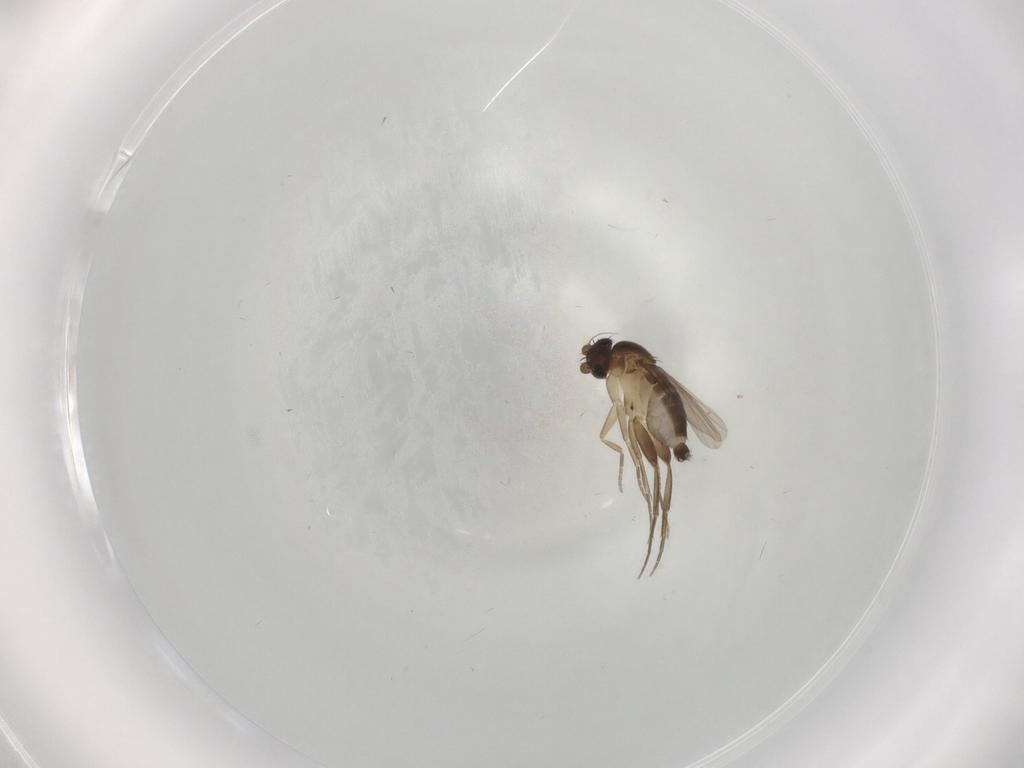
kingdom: Animalia
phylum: Arthropoda
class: Insecta
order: Diptera
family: Phoridae
